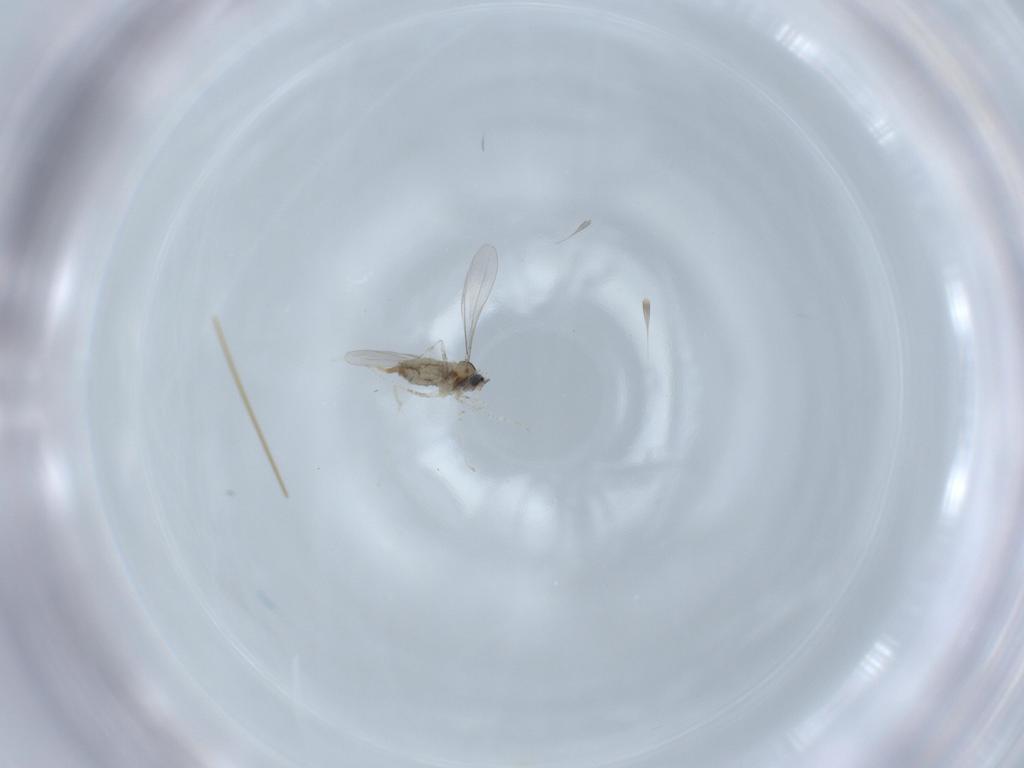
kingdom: Animalia
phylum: Arthropoda
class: Insecta
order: Diptera
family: Cecidomyiidae
